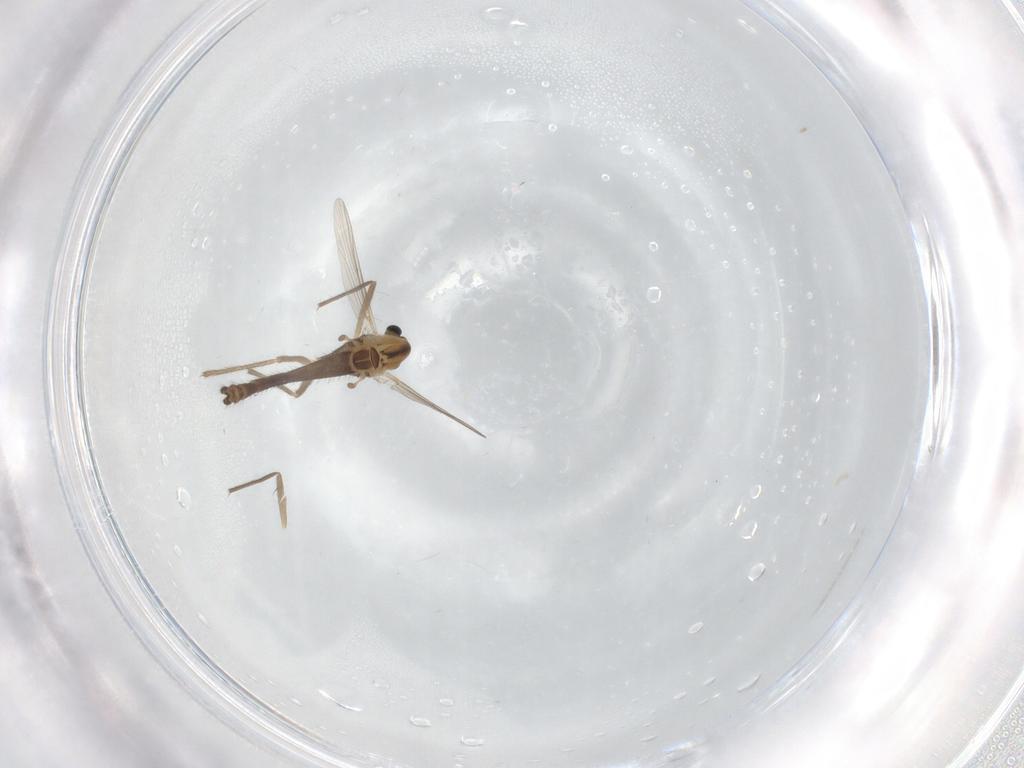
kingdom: Animalia
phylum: Arthropoda
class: Insecta
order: Diptera
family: Chironomidae
